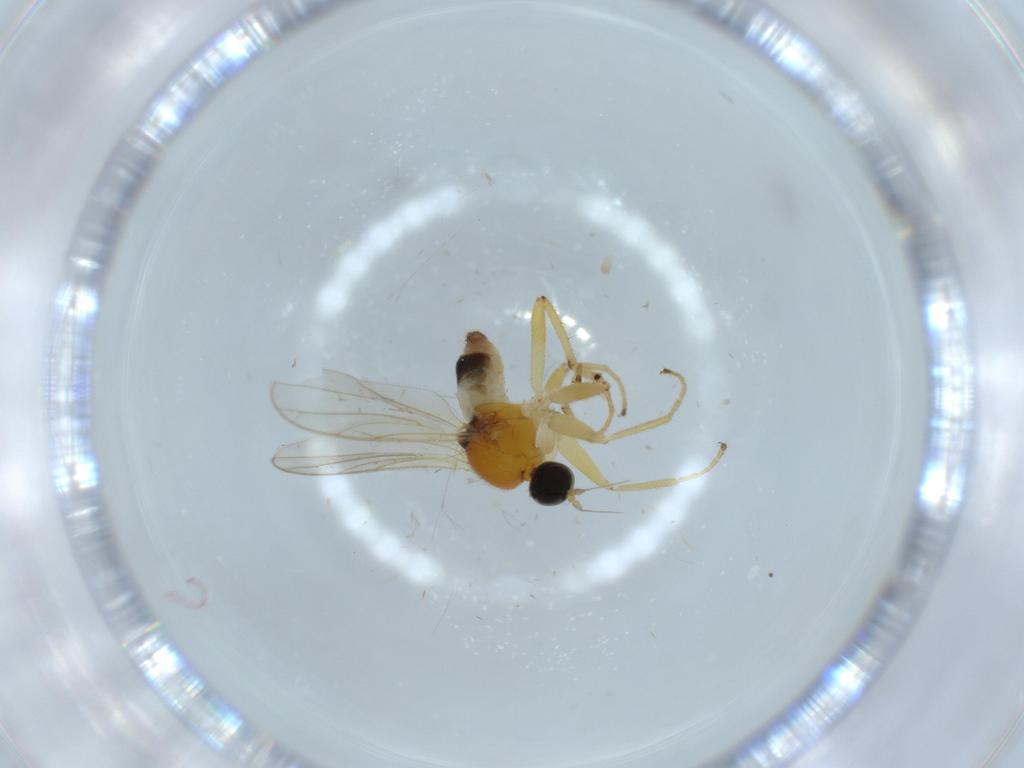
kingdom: Animalia
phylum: Arthropoda
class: Insecta
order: Diptera
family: Hybotidae
